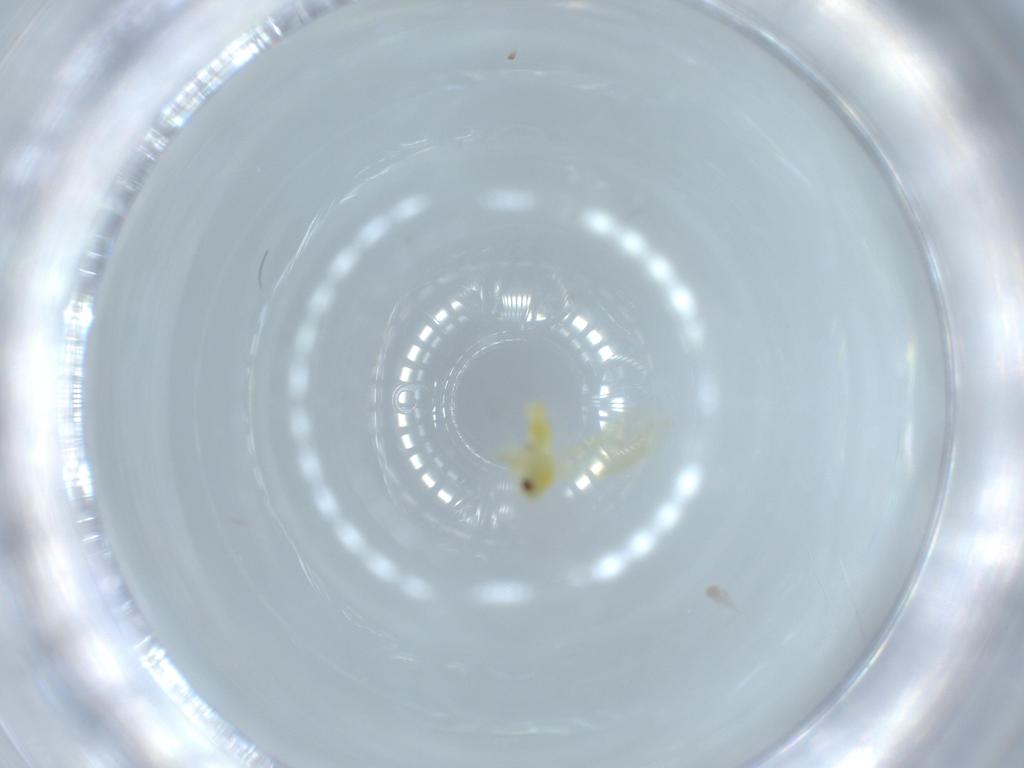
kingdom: Animalia
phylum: Arthropoda
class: Insecta
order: Hemiptera
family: Aleyrodidae
